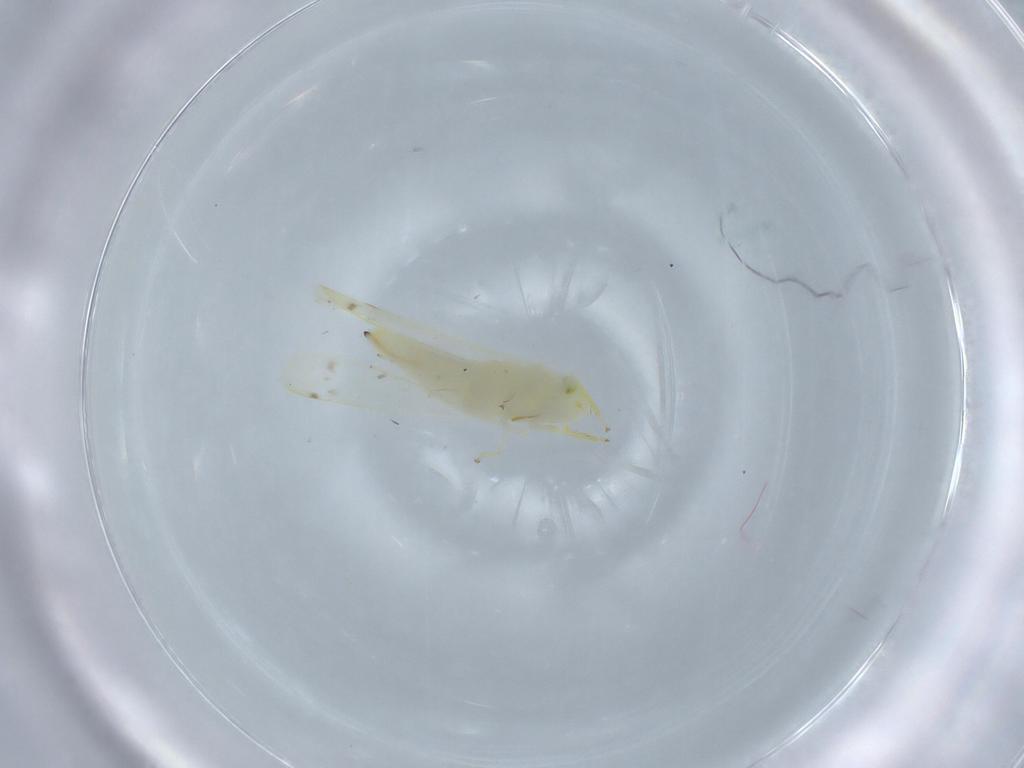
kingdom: Animalia
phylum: Arthropoda
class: Insecta
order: Hemiptera
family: Cicadellidae
